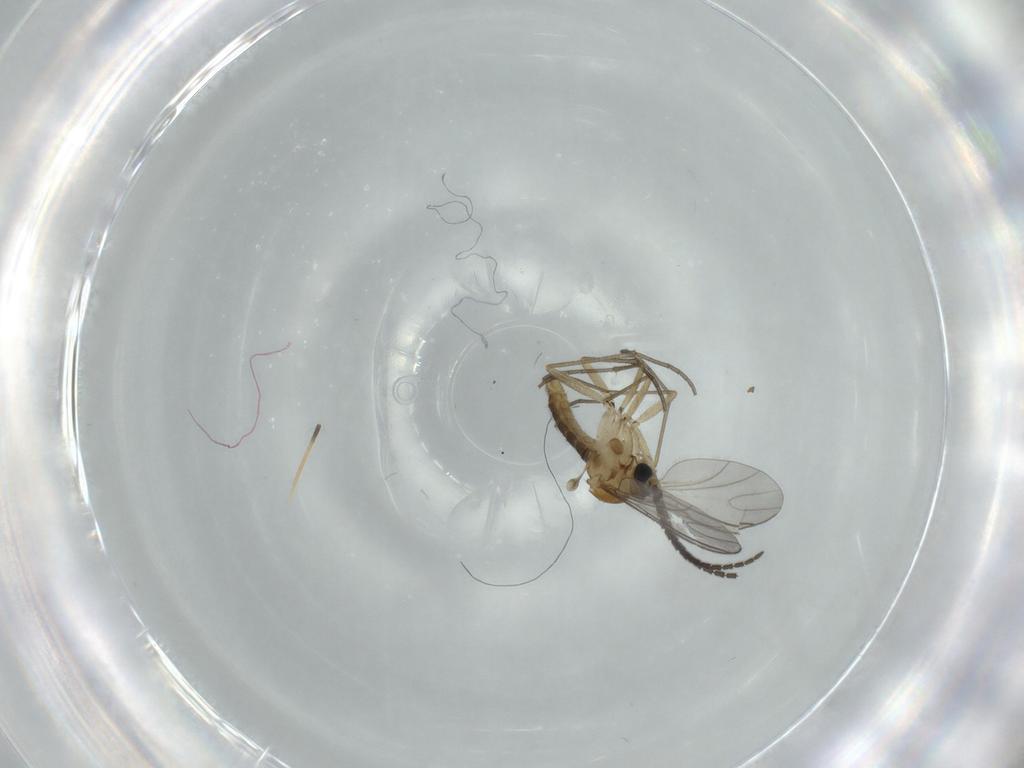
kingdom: Animalia
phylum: Arthropoda
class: Insecta
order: Diptera
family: Sciaridae
